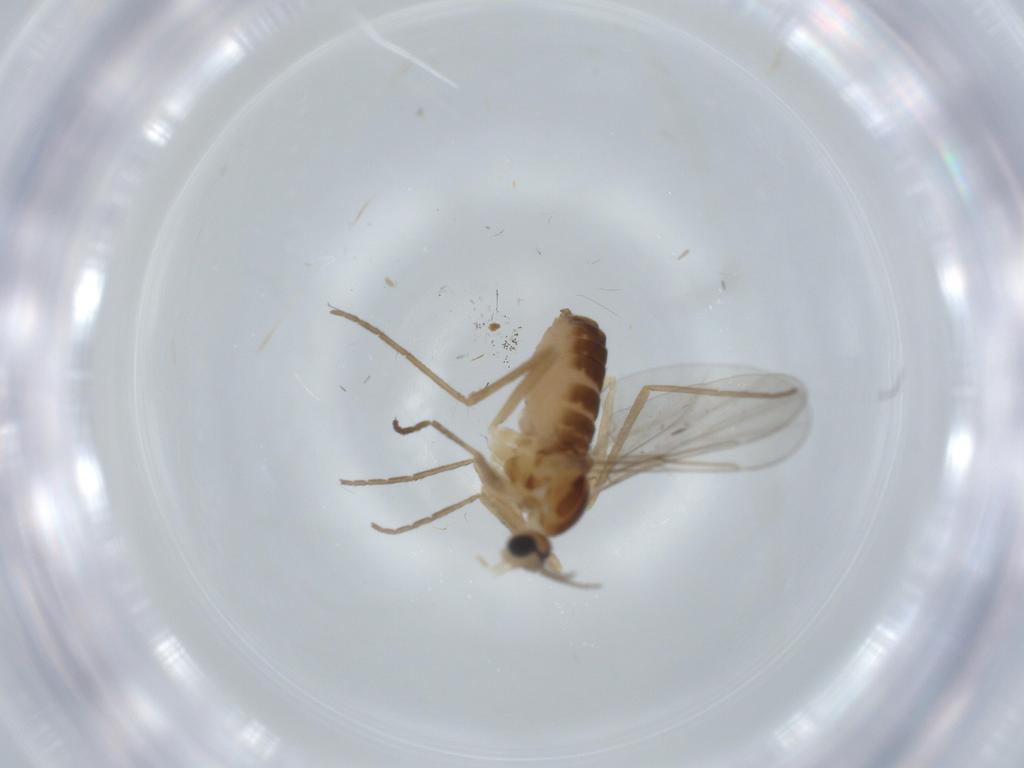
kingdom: Animalia
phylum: Arthropoda
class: Insecta
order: Diptera
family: Cecidomyiidae
